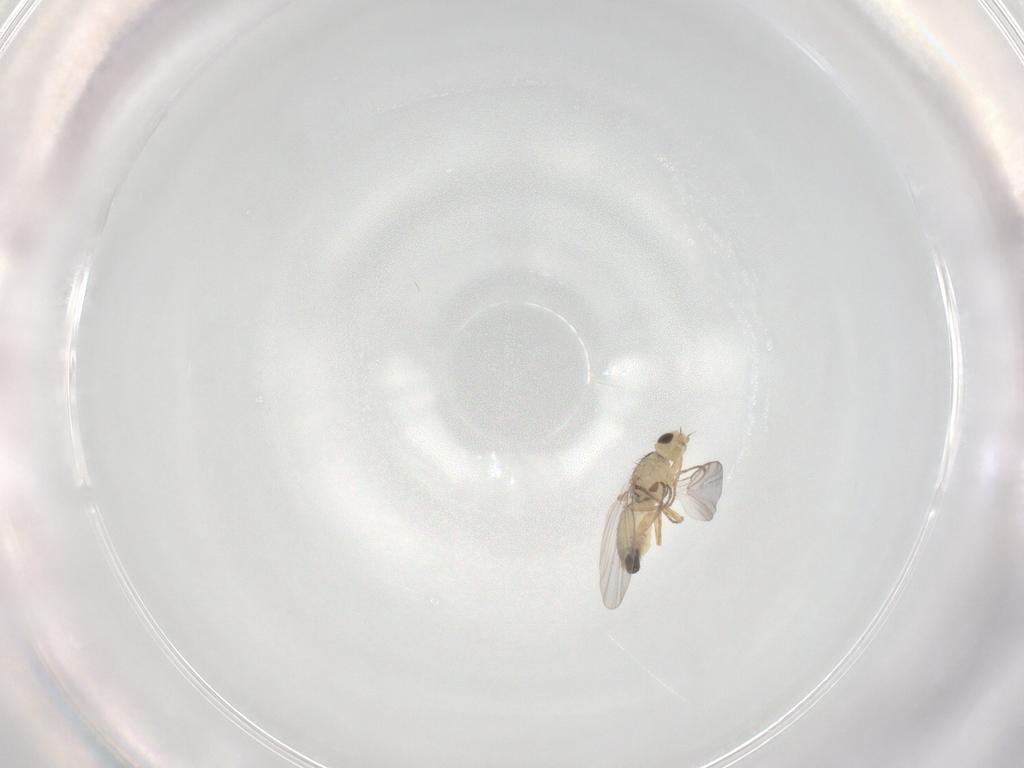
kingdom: Animalia
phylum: Arthropoda
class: Insecta
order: Diptera
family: Agromyzidae
